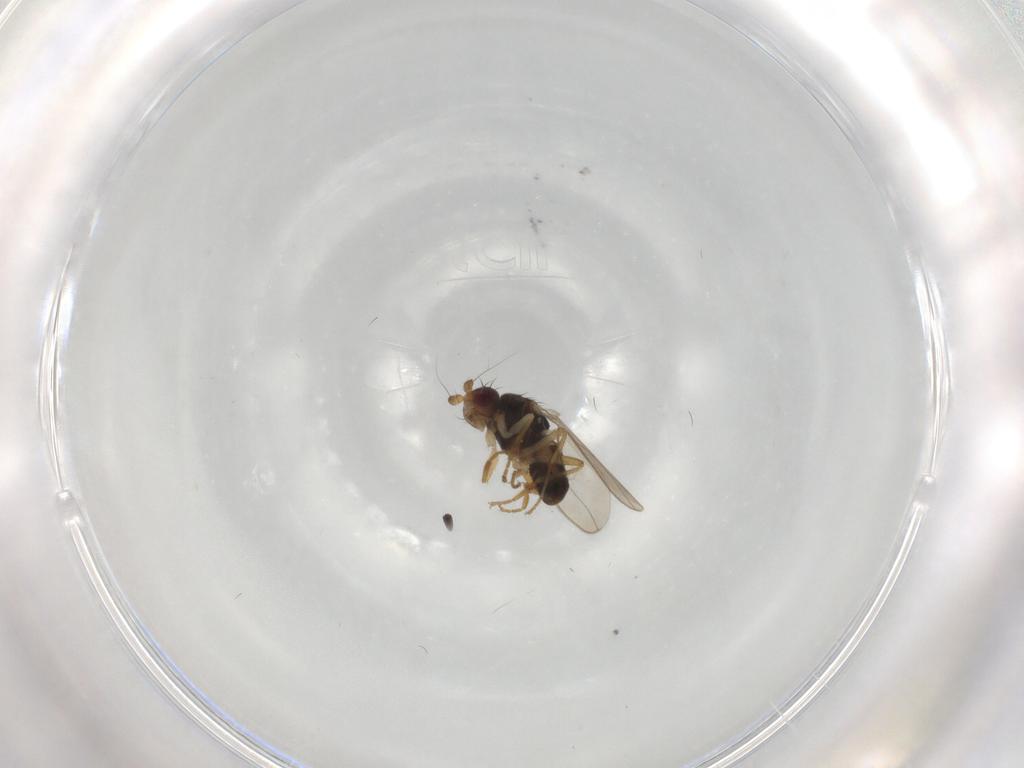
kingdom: Animalia
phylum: Arthropoda
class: Insecta
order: Diptera
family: Sphaeroceridae
